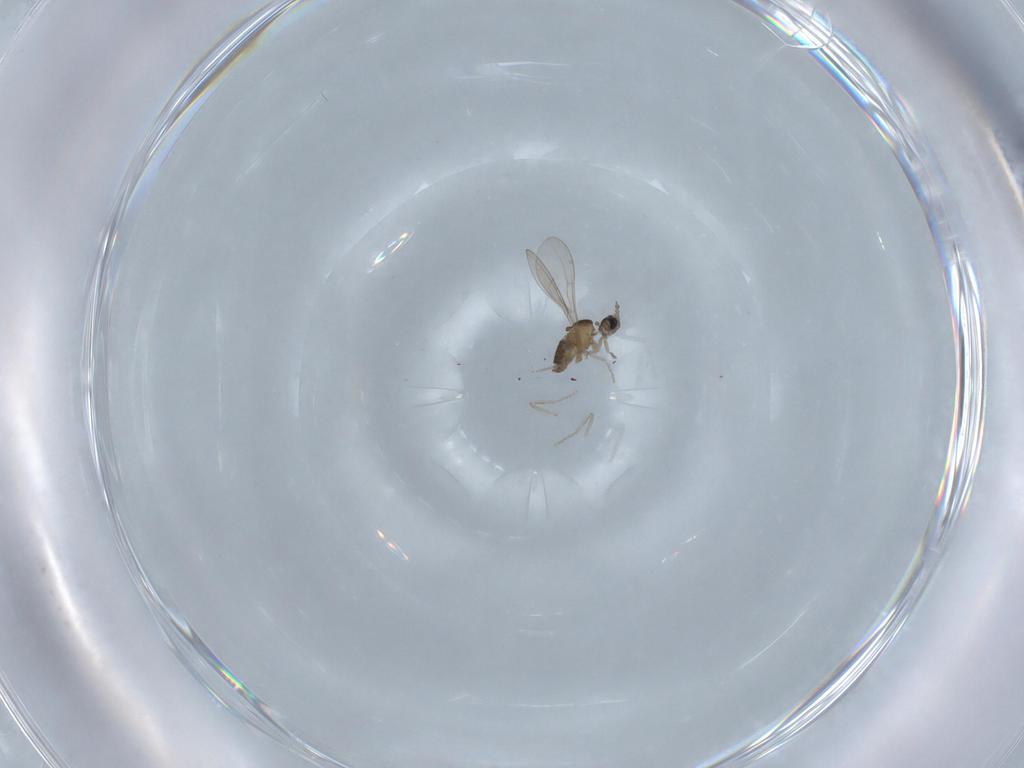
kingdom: Animalia
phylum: Arthropoda
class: Insecta
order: Diptera
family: Cecidomyiidae
